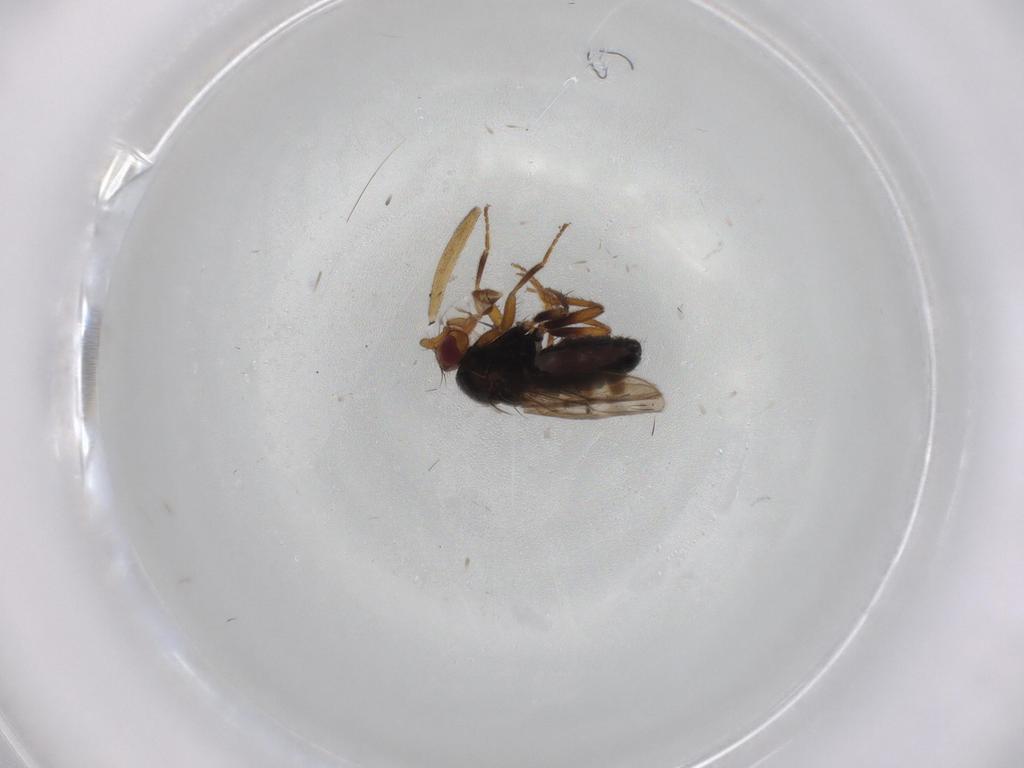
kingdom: Animalia
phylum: Arthropoda
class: Insecta
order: Diptera
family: Sphaeroceridae
